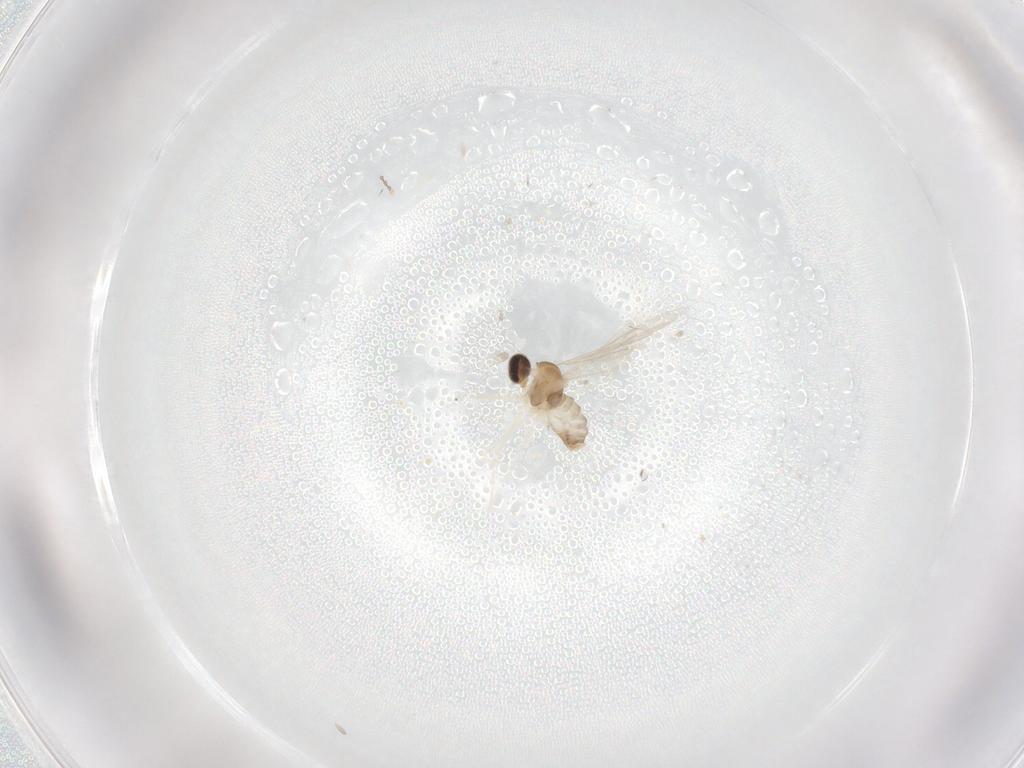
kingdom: Animalia
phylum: Arthropoda
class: Insecta
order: Diptera
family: Cecidomyiidae
